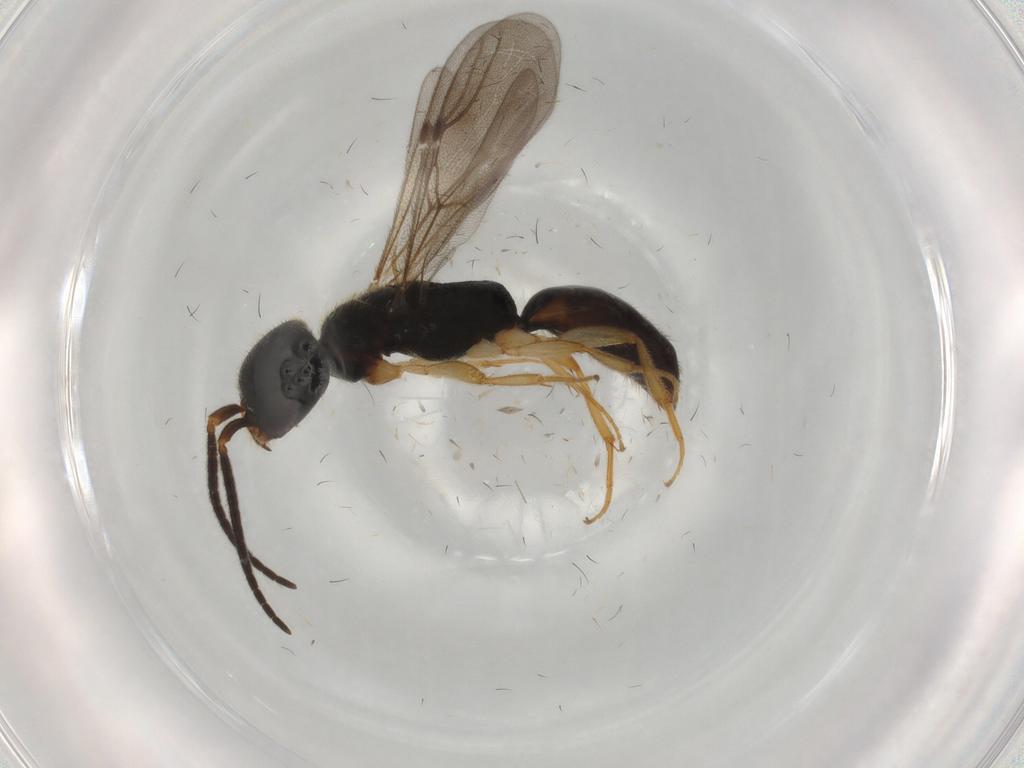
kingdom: Animalia
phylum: Arthropoda
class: Insecta
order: Hymenoptera
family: Bethylidae
